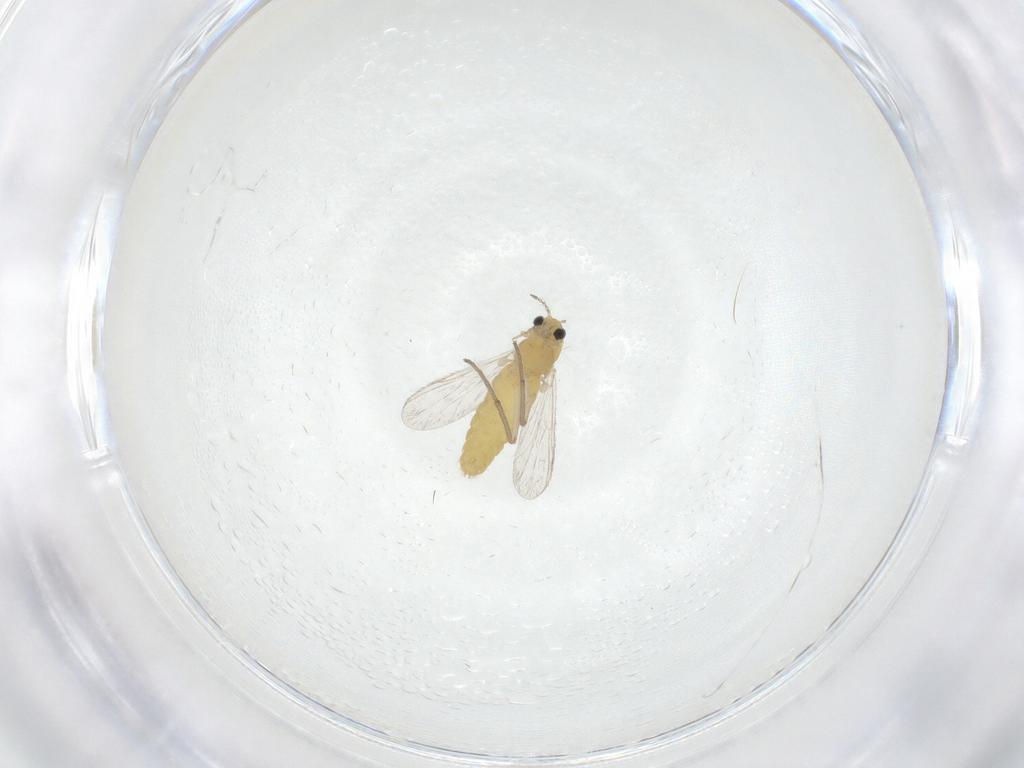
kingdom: Animalia
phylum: Arthropoda
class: Insecta
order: Diptera
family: Chironomidae
